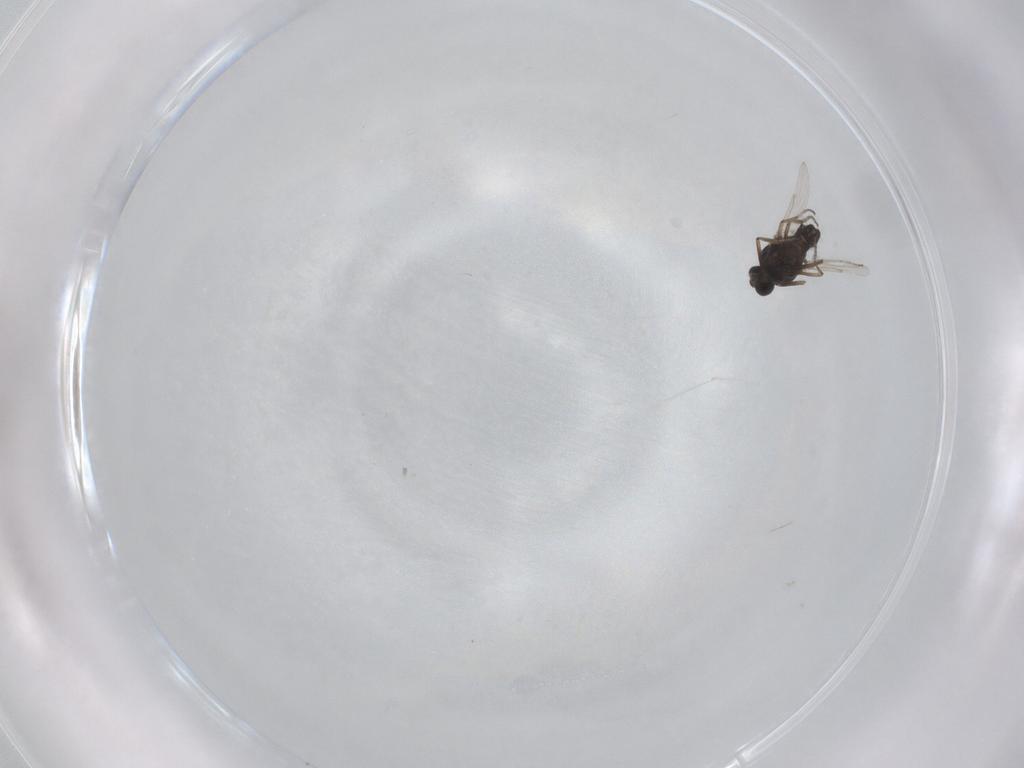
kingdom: Animalia
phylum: Arthropoda
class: Insecta
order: Diptera
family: Ceratopogonidae
